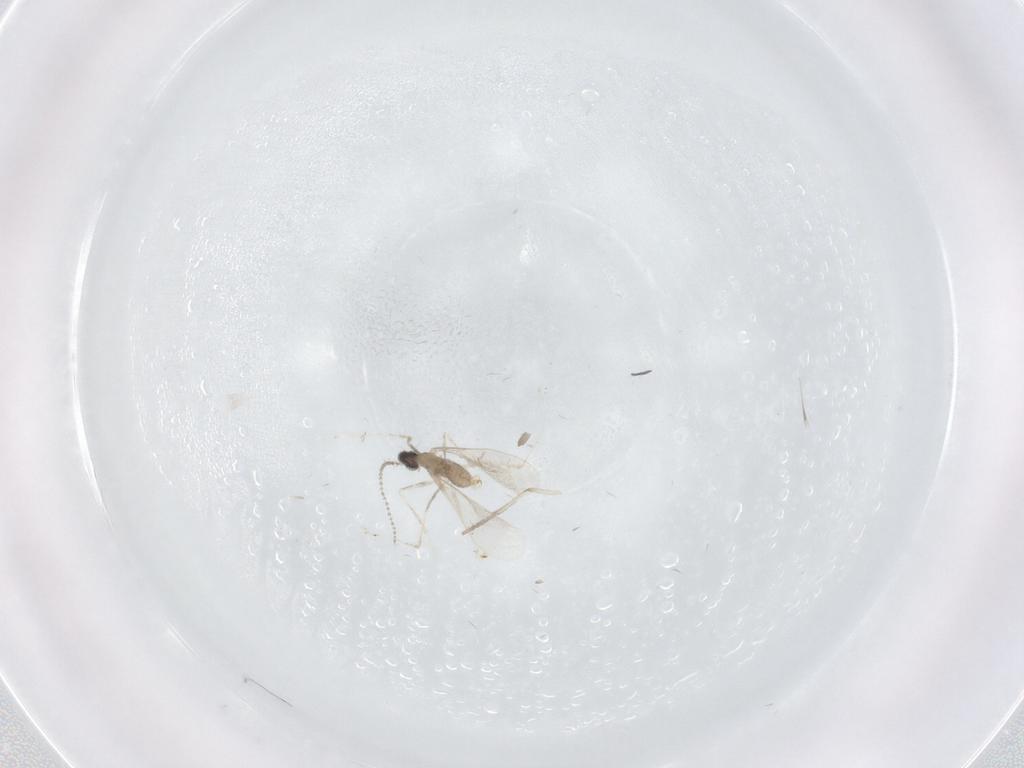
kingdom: Animalia
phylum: Arthropoda
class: Insecta
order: Diptera
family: Cecidomyiidae
